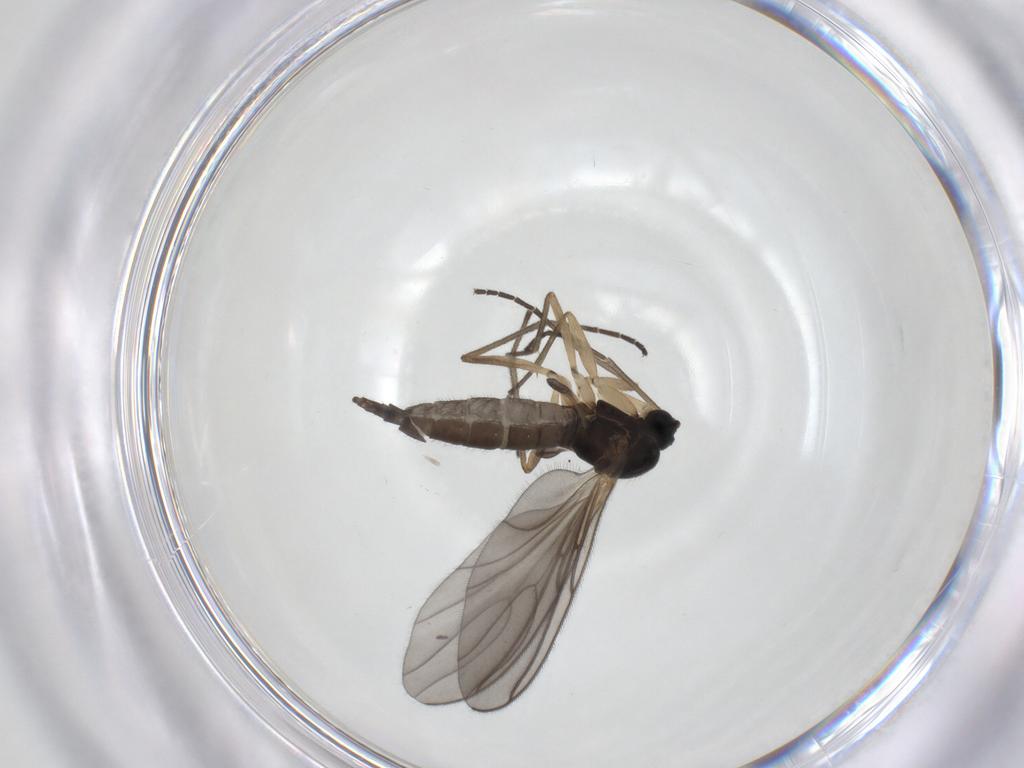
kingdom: Animalia
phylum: Arthropoda
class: Insecta
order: Diptera
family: Sciaridae
